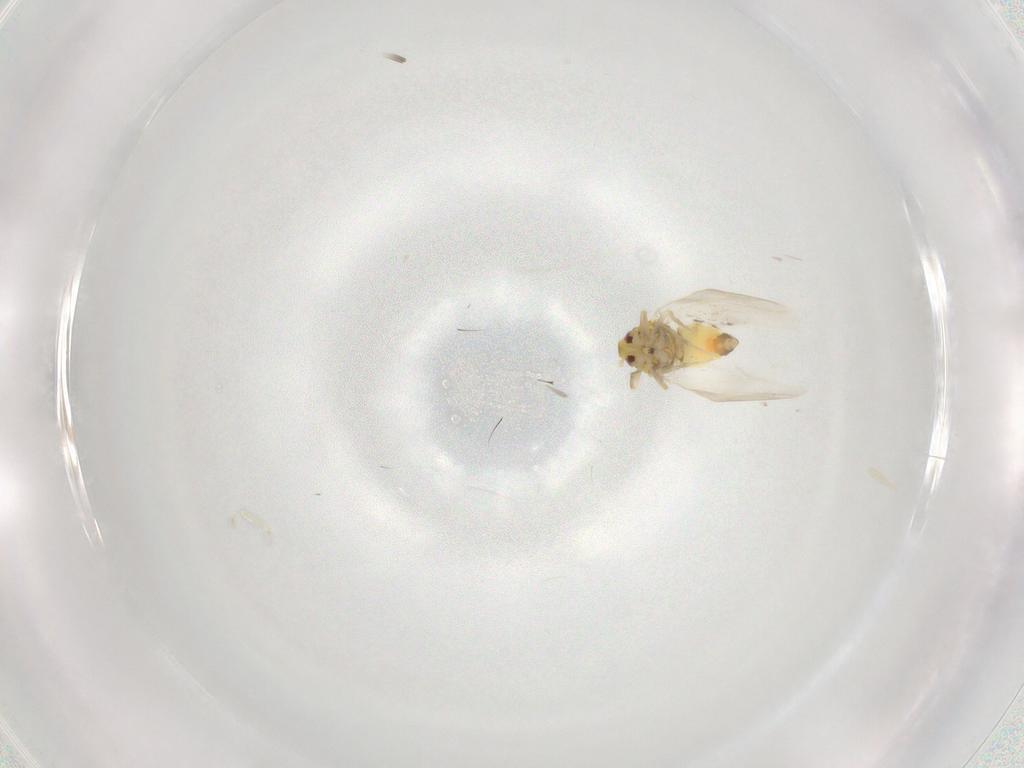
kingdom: Animalia
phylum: Arthropoda
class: Insecta
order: Hemiptera
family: Aleyrodidae
